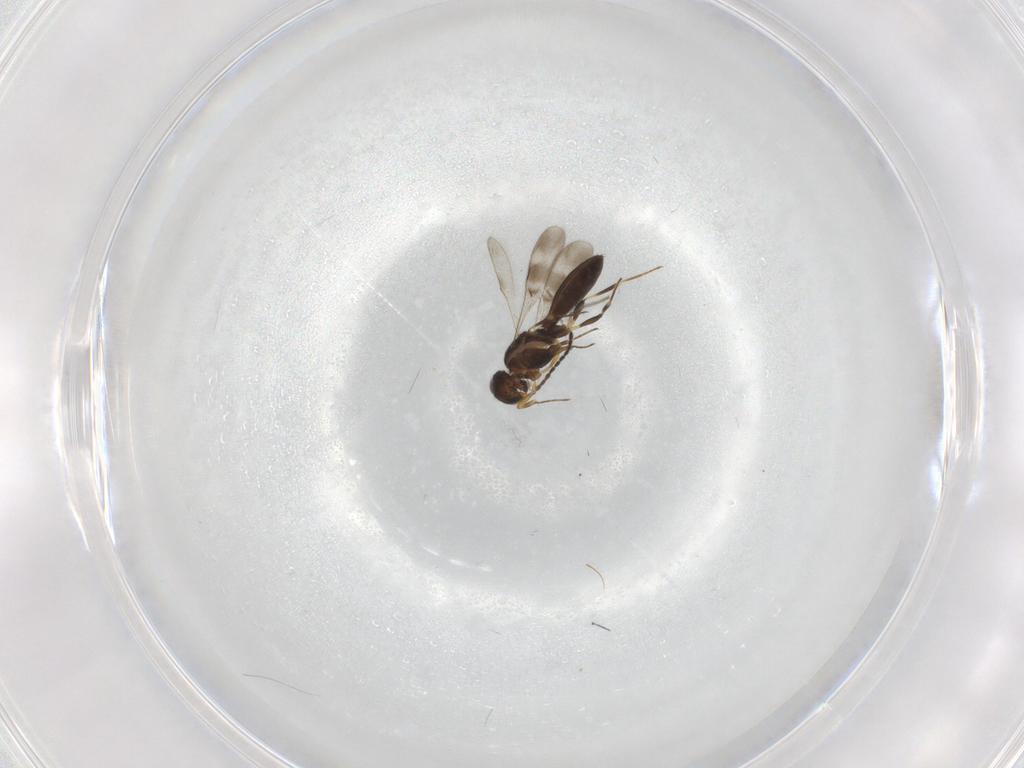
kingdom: Animalia
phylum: Arthropoda
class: Insecta
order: Hymenoptera
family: Scelionidae
